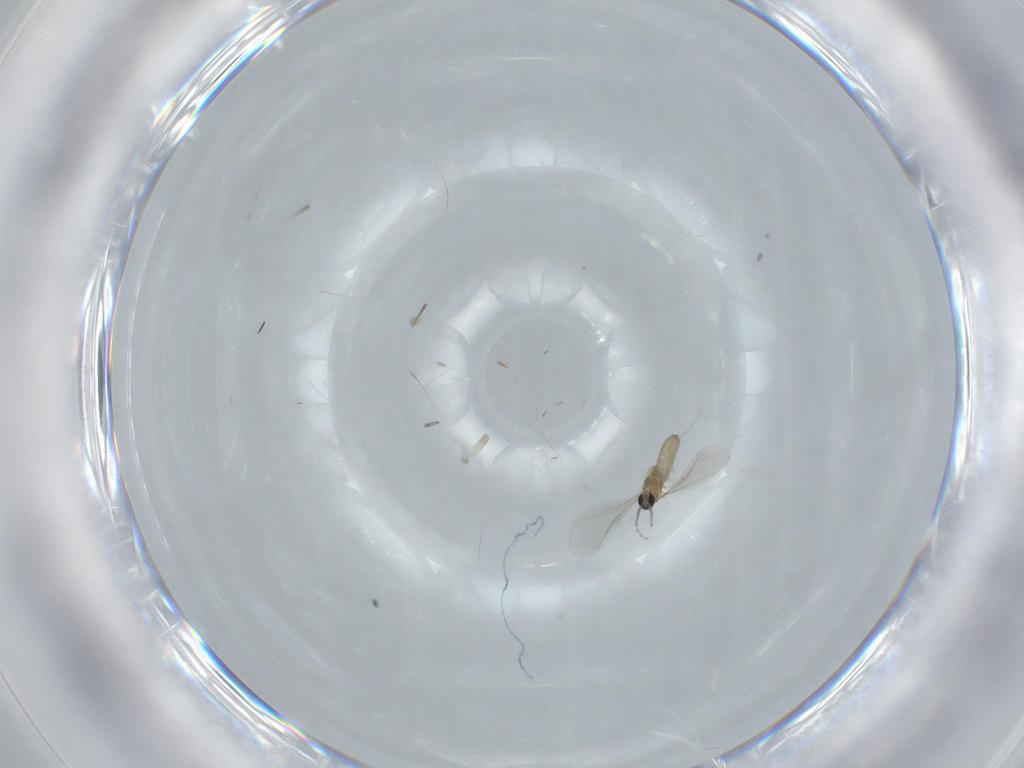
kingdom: Animalia
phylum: Arthropoda
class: Insecta
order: Diptera
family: Cecidomyiidae
